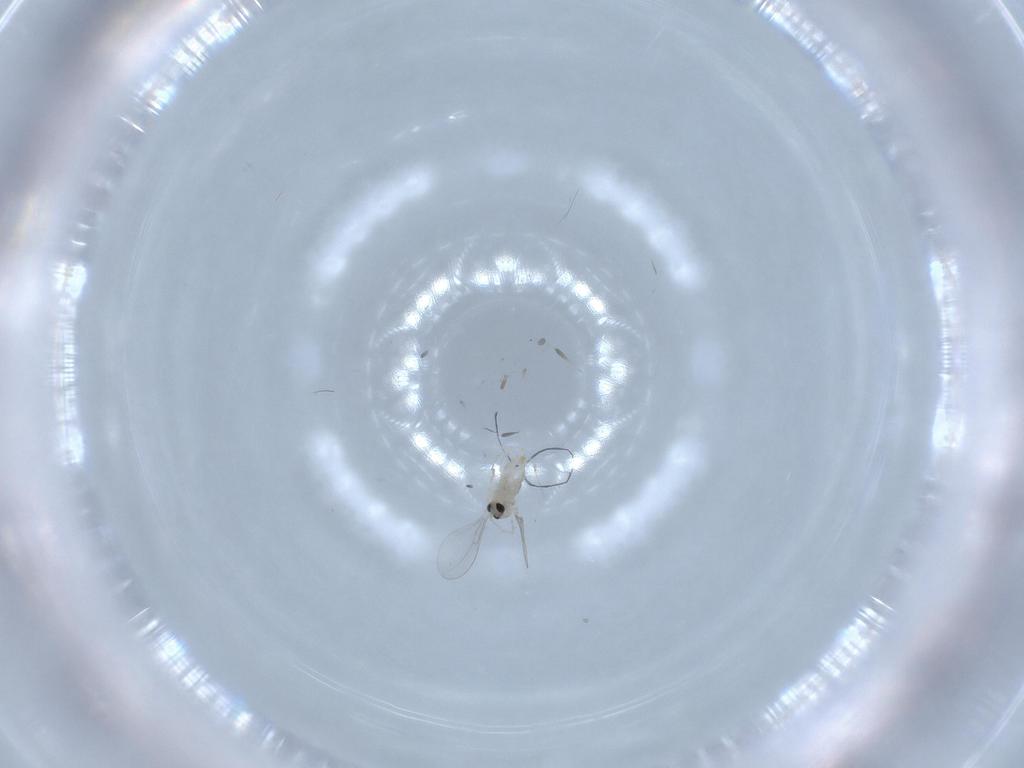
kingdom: Animalia
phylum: Arthropoda
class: Insecta
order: Diptera
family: Cecidomyiidae
